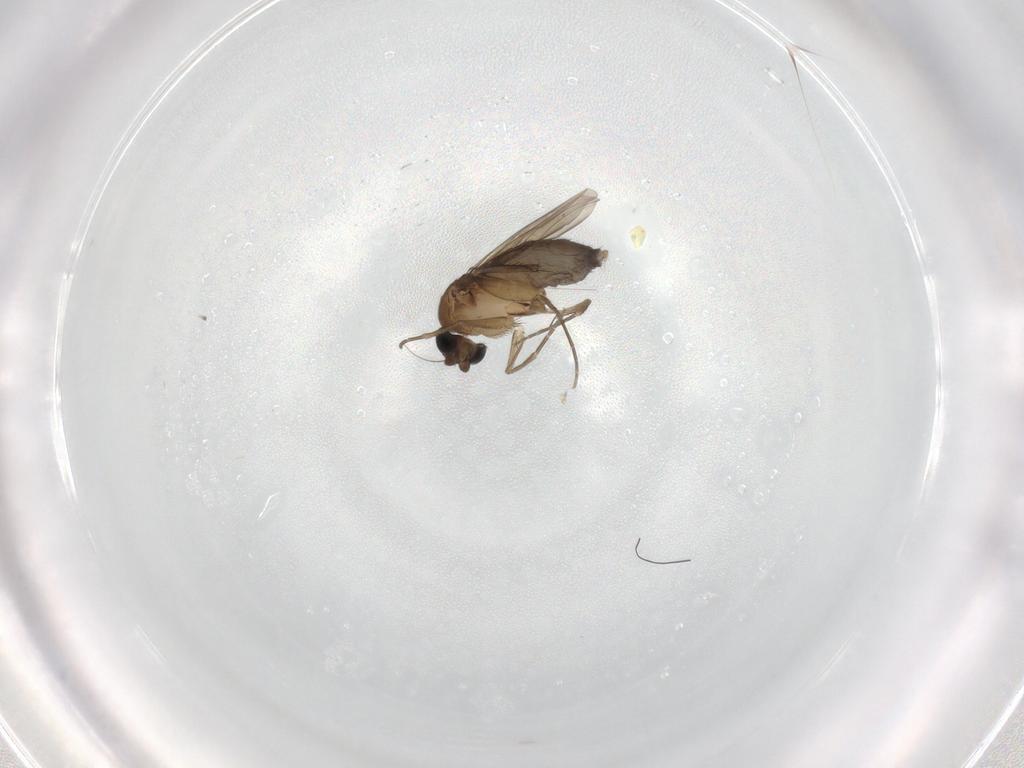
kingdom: Animalia
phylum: Arthropoda
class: Insecta
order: Diptera
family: Phoridae
